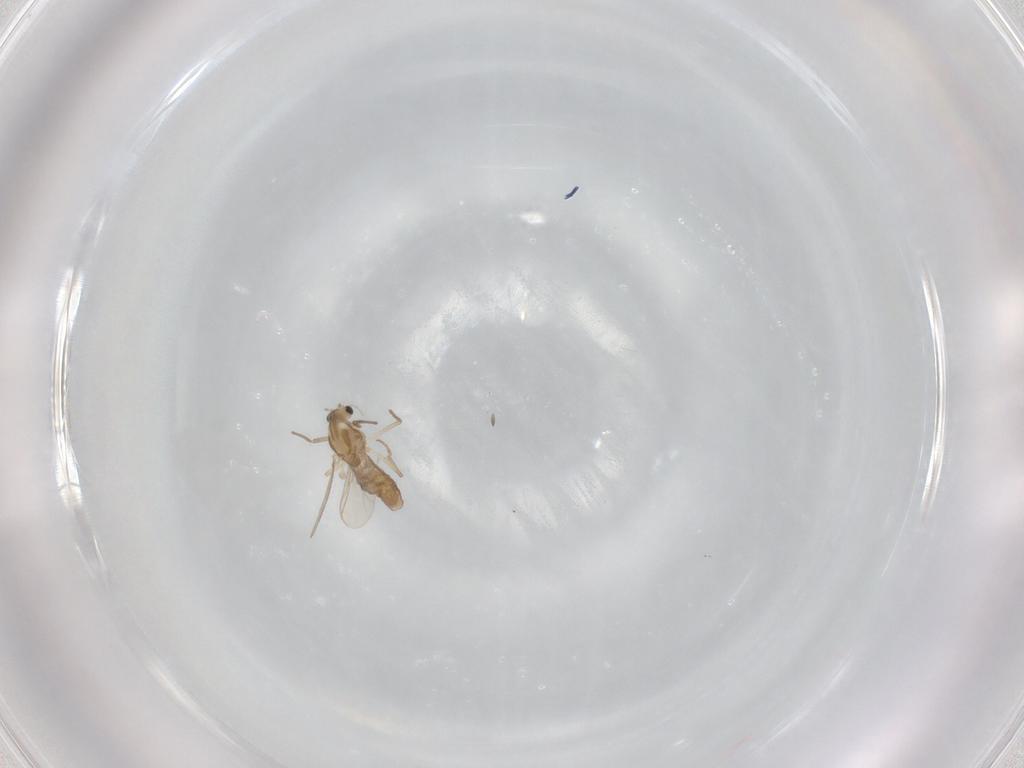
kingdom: Animalia
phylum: Arthropoda
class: Insecta
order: Diptera
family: Chironomidae
